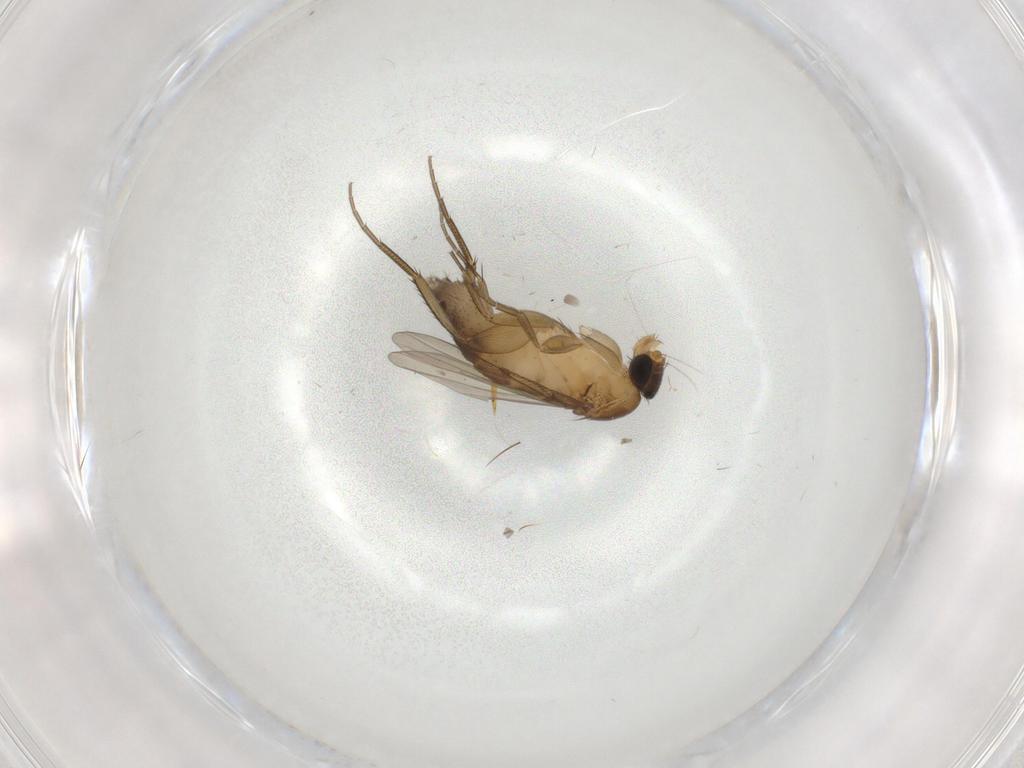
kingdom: Animalia
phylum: Arthropoda
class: Insecta
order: Diptera
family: Phoridae
